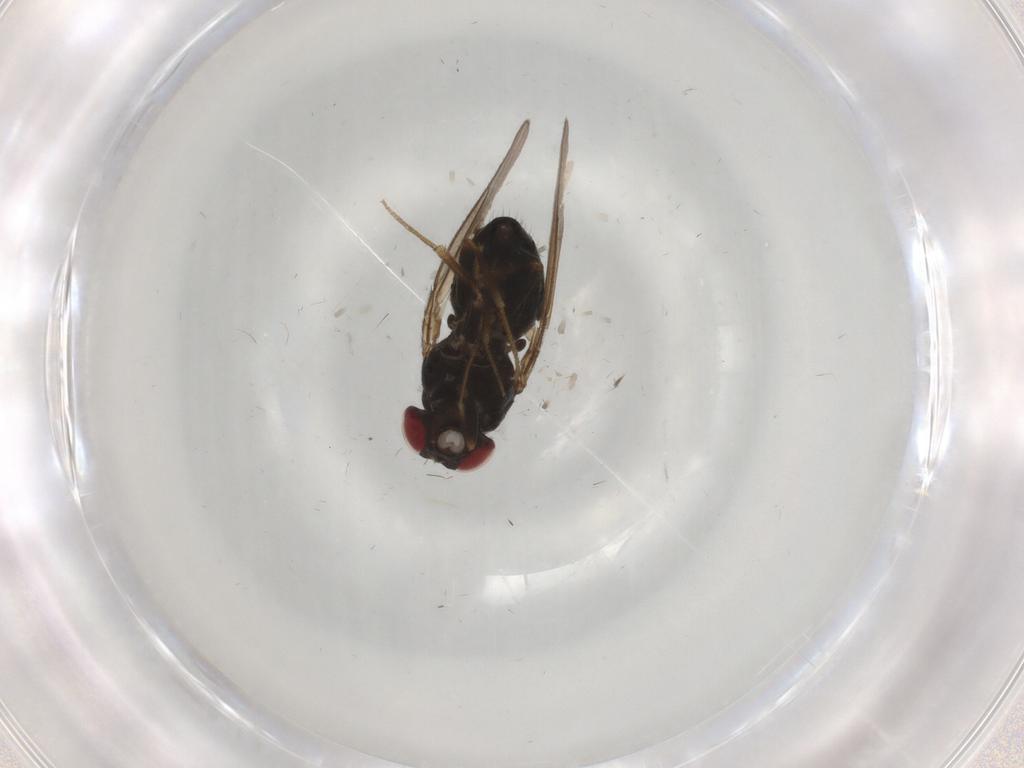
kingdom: Animalia
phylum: Arthropoda
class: Insecta
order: Diptera
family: Drosophilidae
